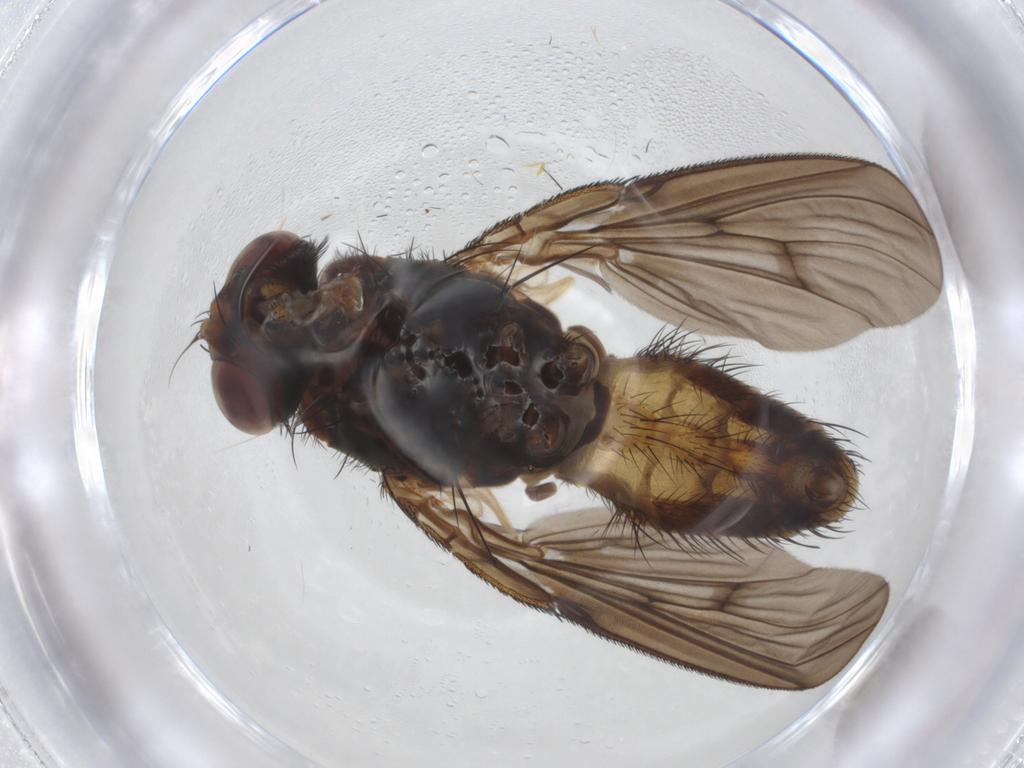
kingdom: Animalia
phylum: Arthropoda
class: Insecta
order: Diptera
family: Muscidae
